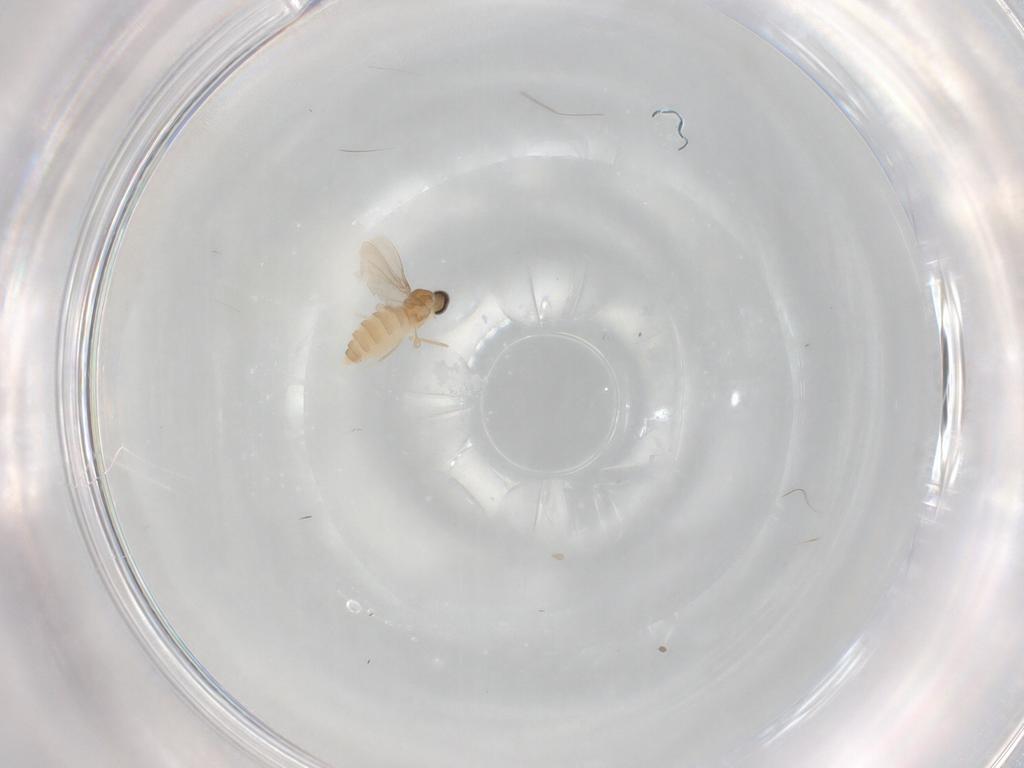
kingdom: Animalia
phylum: Arthropoda
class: Insecta
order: Diptera
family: Cecidomyiidae
